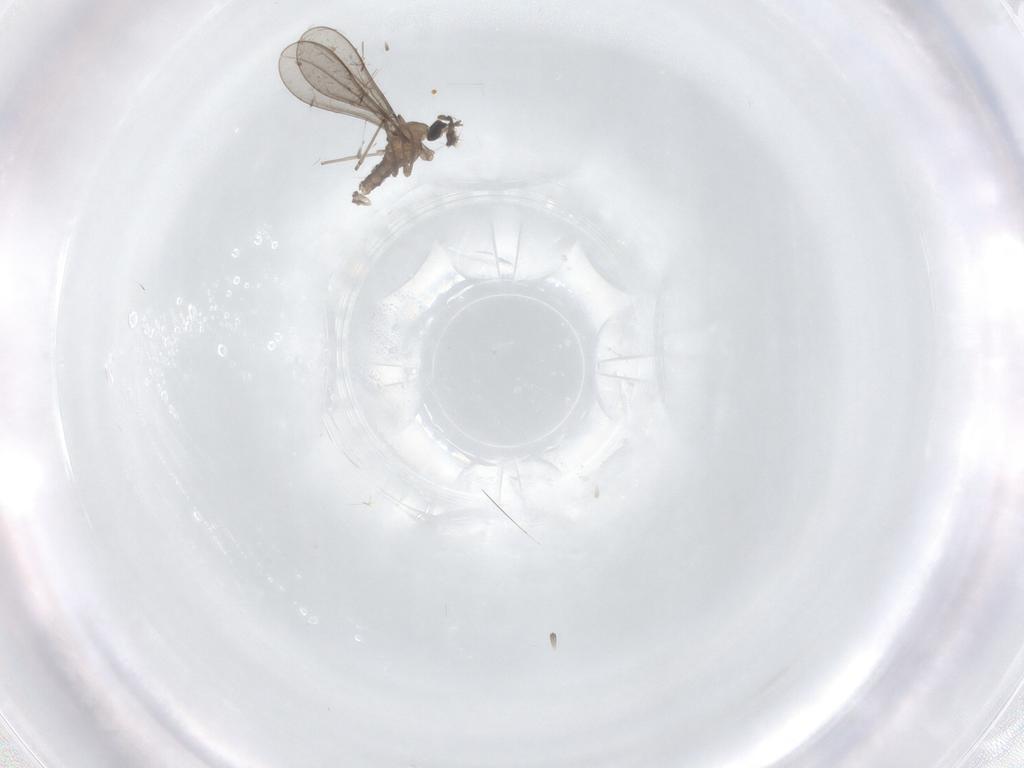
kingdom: Animalia
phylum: Arthropoda
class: Insecta
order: Diptera
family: Cecidomyiidae
